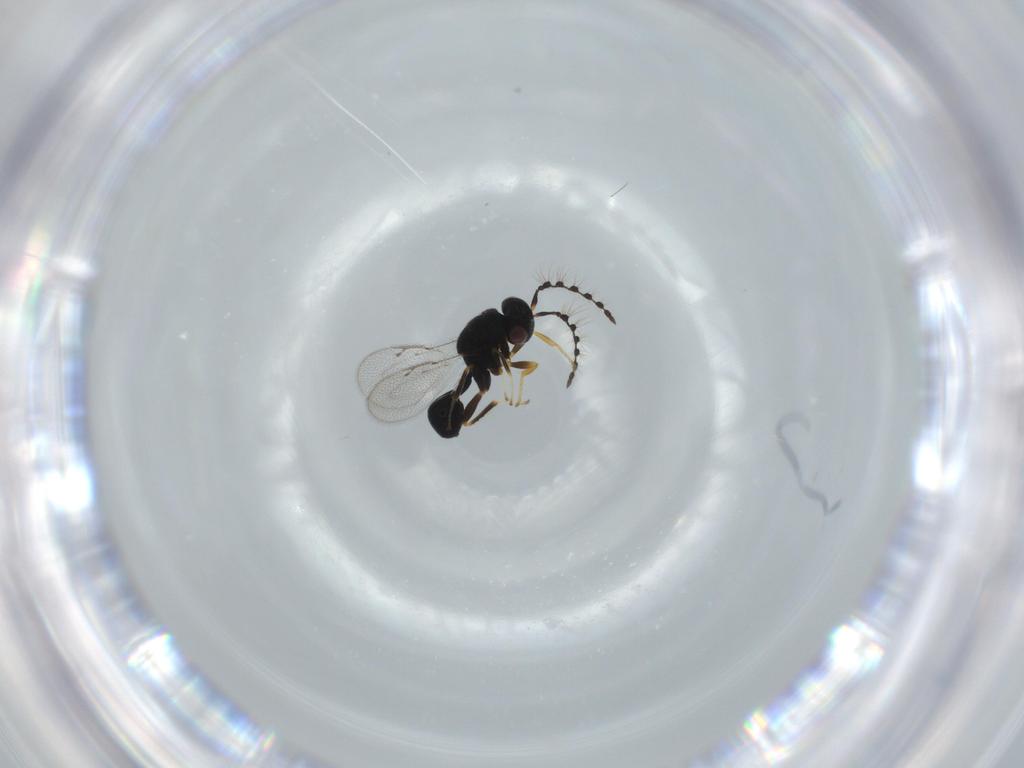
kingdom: Animalia
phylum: Arthropoda
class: Insecta
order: Hymenoptera
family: Eurytomidae
